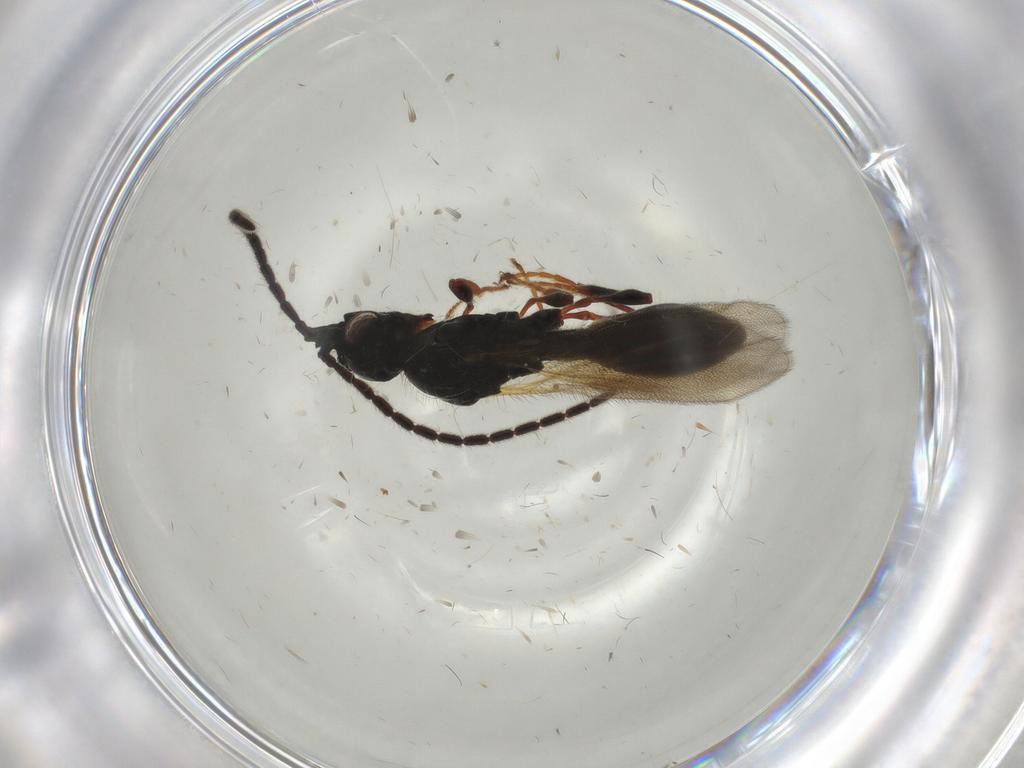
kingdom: Animalia
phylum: Arthropoda
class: Insecta
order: Hymenoptera
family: Formicidae
